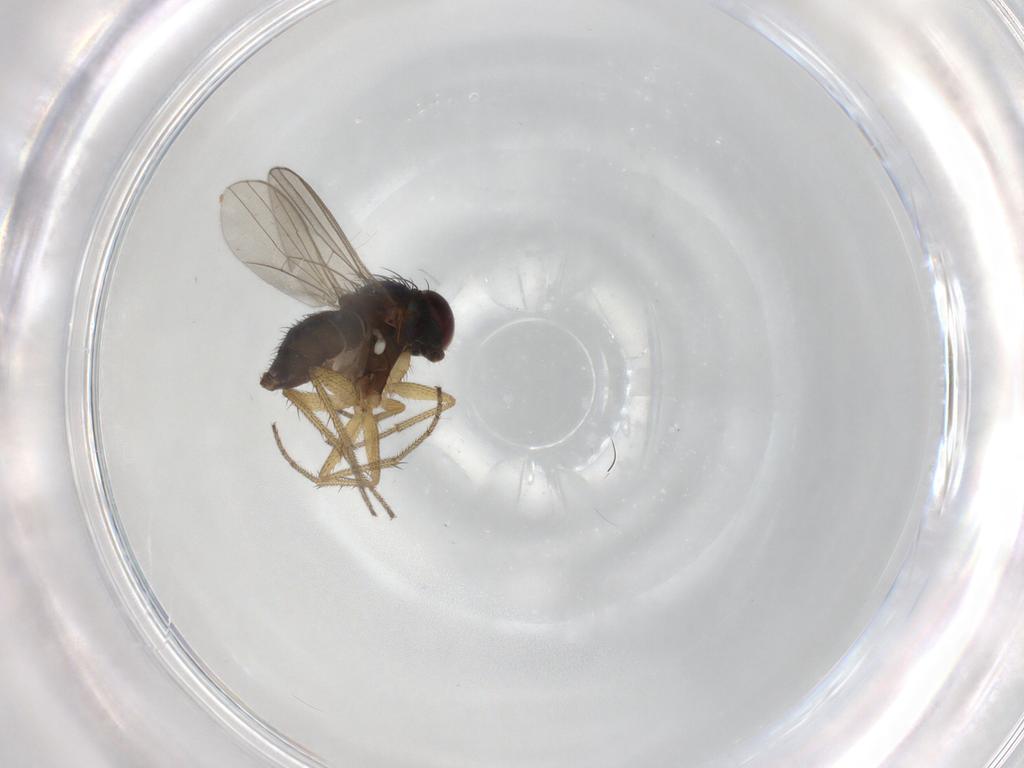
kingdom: Animalia
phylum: Arthropoda
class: Insecta
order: Diptera
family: Dolichopodidae
